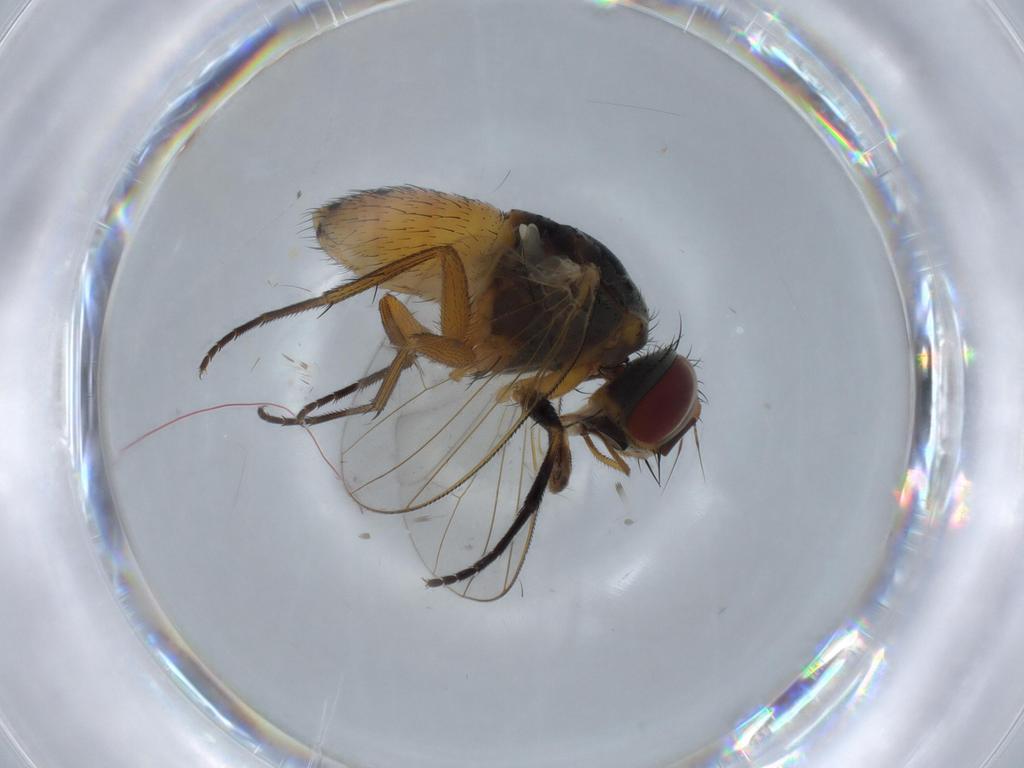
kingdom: Animalia
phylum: Arthropoda
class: Insecta
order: Diptera
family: Muscidae
